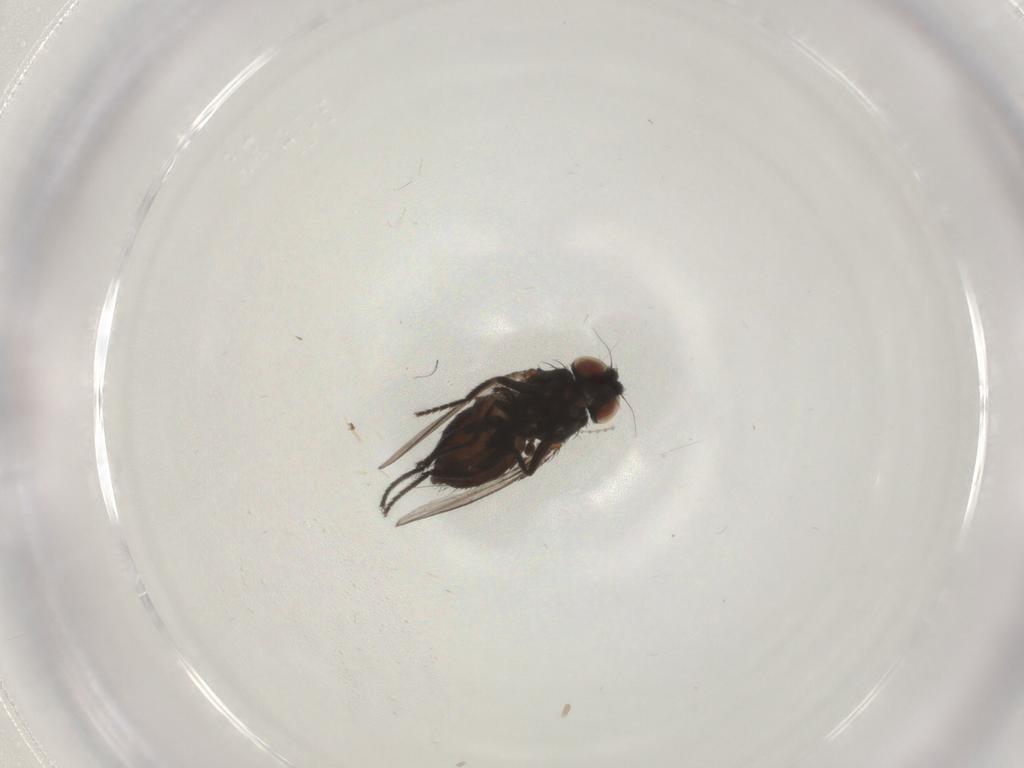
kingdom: Animalia
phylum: Arthropoda
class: Insecta
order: Diptera
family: Milichiidae
